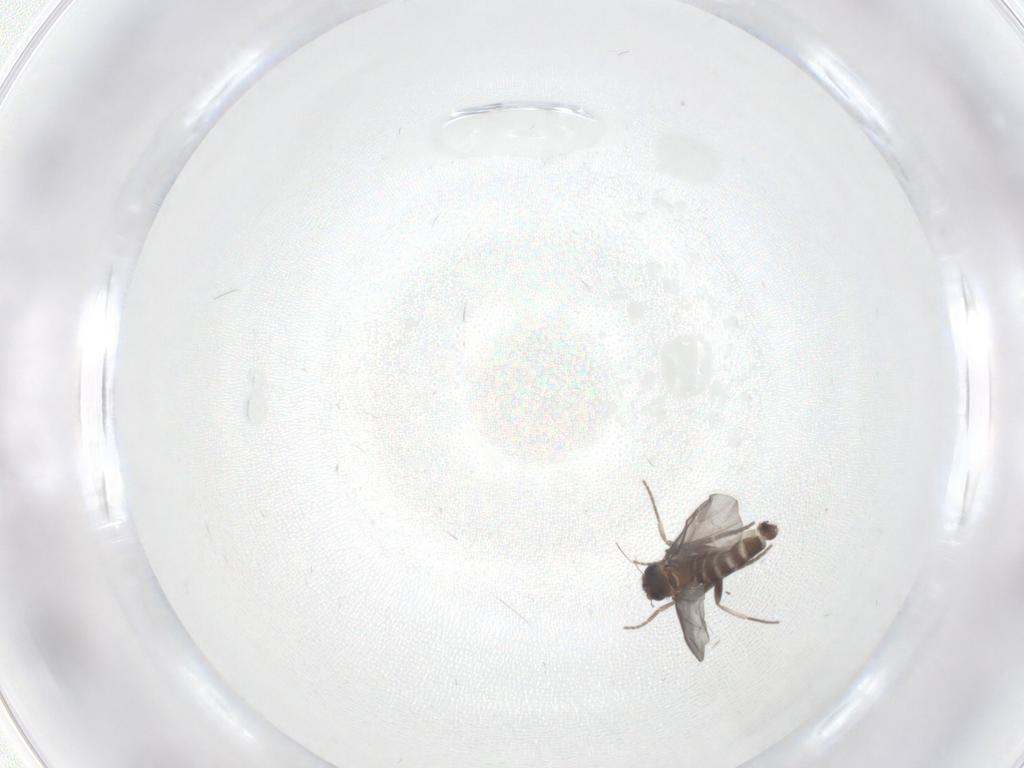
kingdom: Animalia
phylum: Arthropoda
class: Insecta
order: Diptera
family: Phoridae
